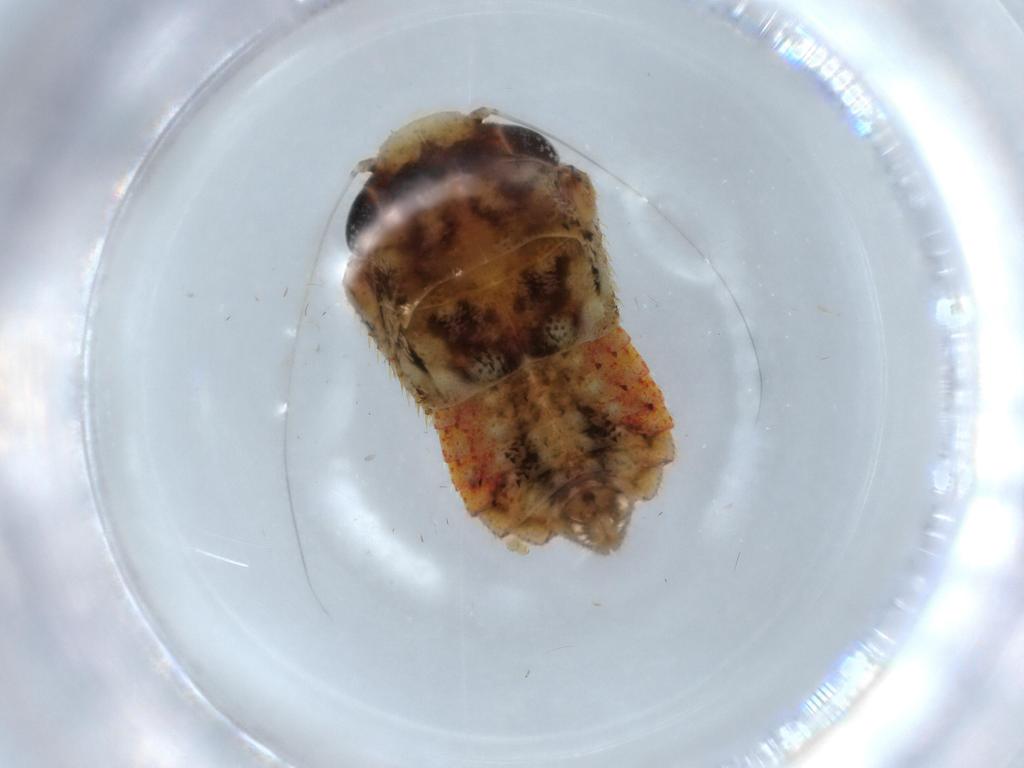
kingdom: Animalia
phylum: Arthropoda
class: Insecta
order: Hemiptera
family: Cicadellidae
